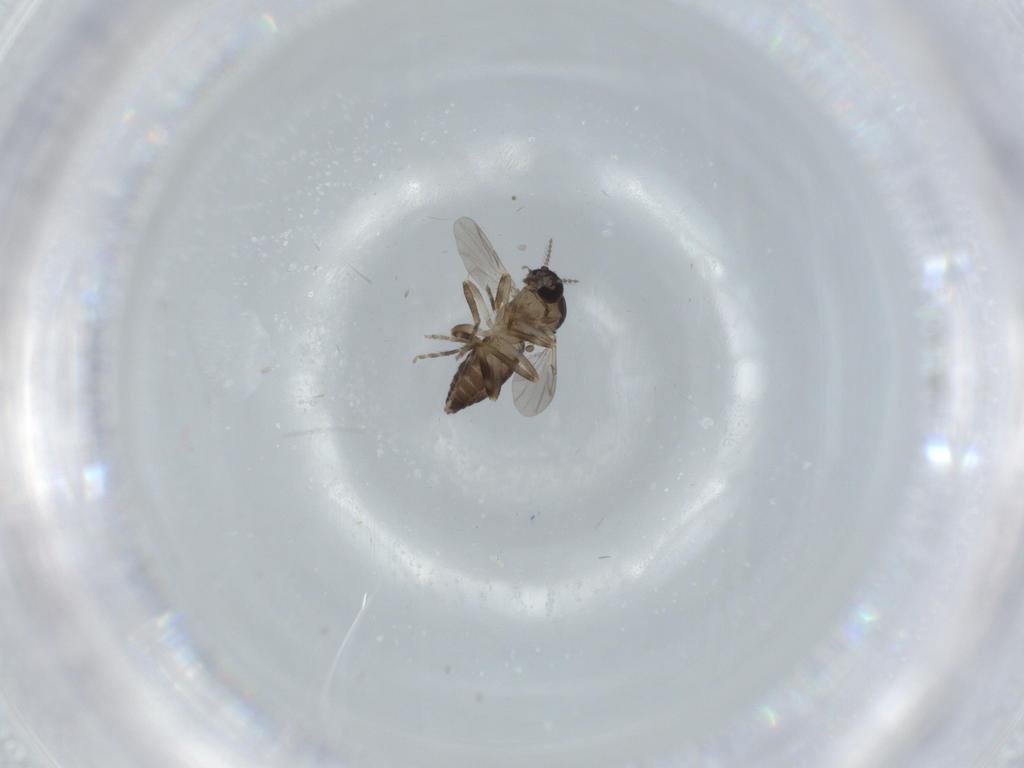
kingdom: Animalia
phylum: Arthropoda
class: Insecta
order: Diptera
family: Ceratopogonidae
